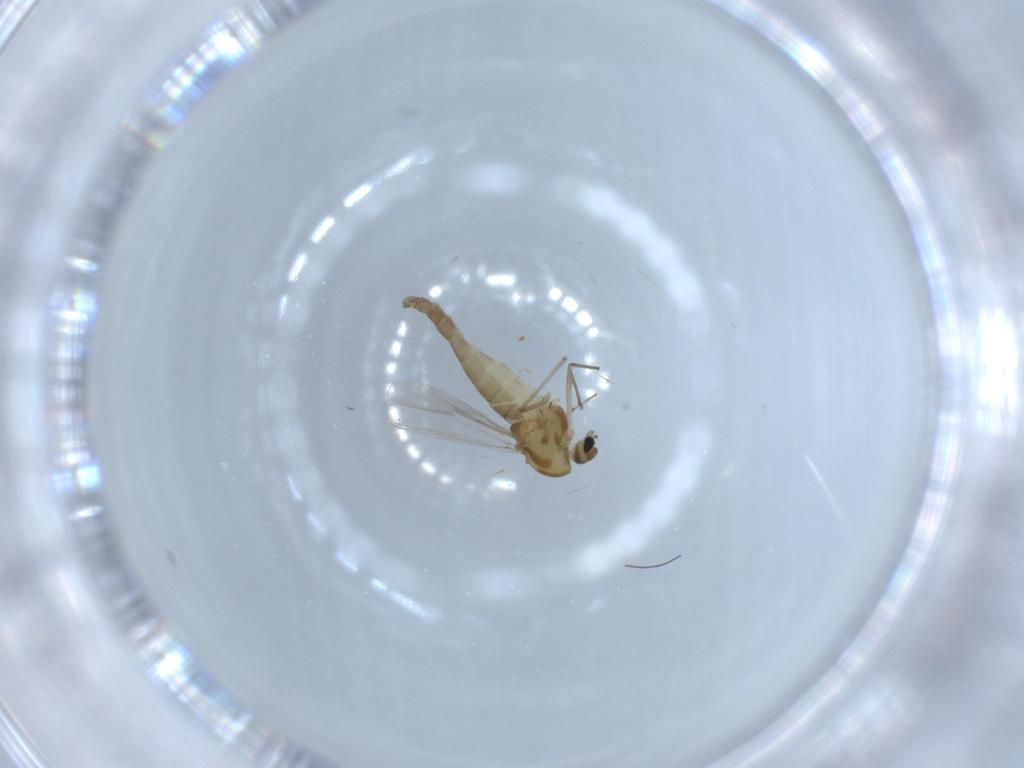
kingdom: Animalia
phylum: Arthropoda
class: Insecta
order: Diptera
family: Chironomidae
